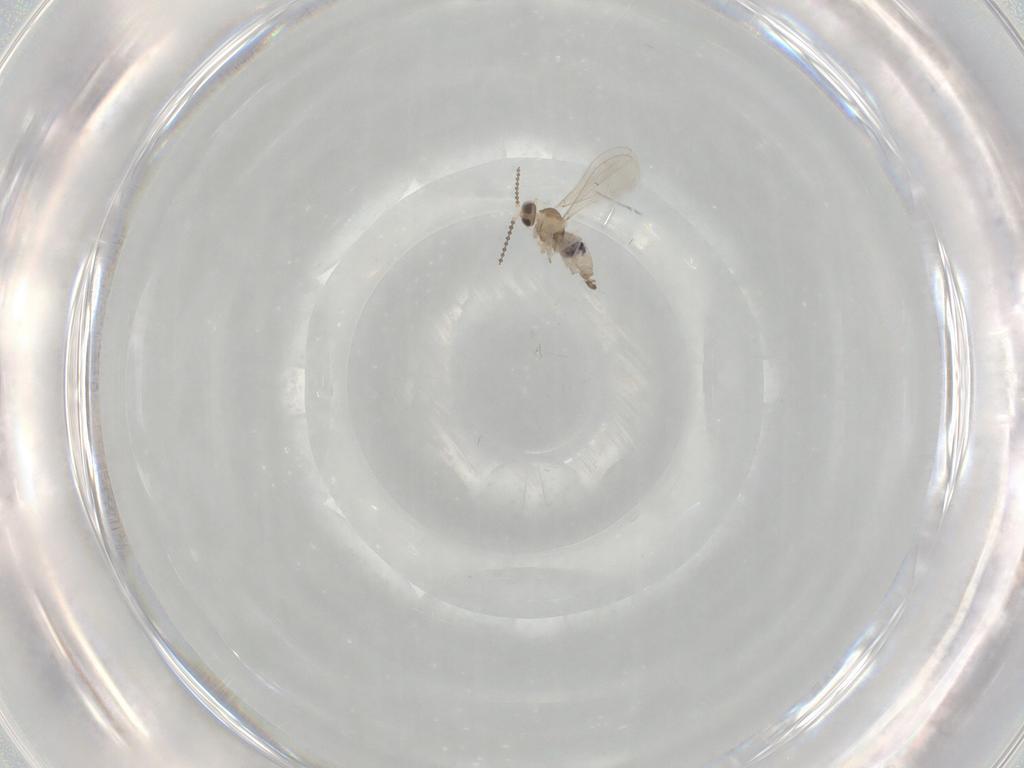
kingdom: Animalia
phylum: Arthropoda
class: Insecta
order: Diptera
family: Cecidomyiidae
